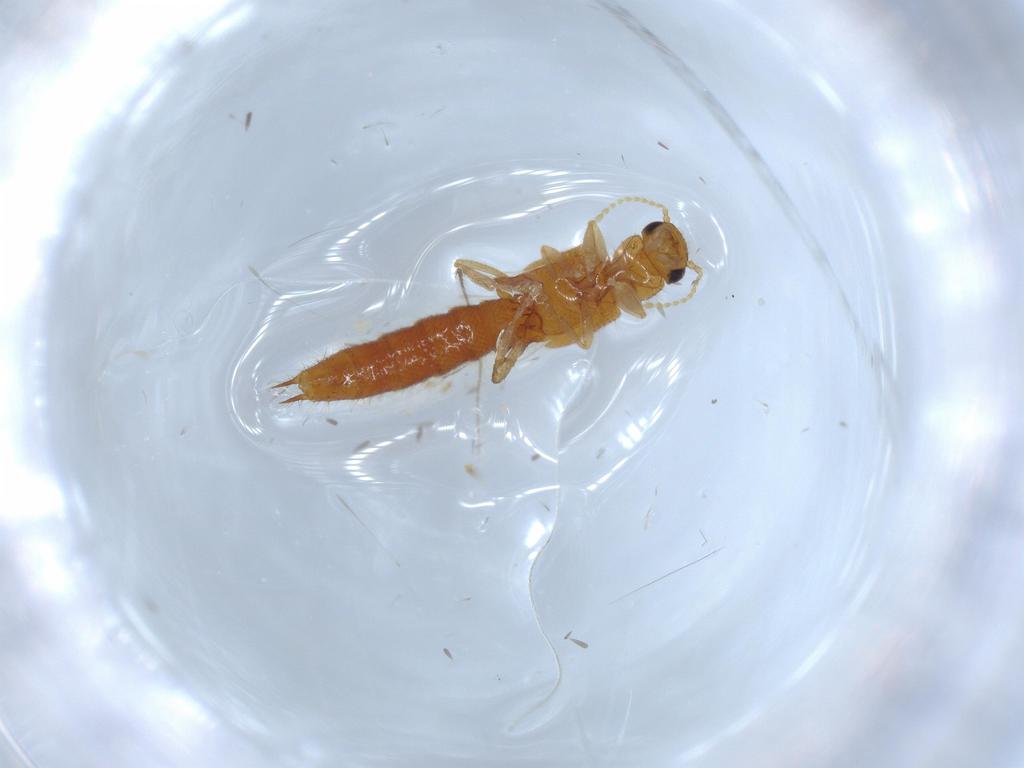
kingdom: Animalia
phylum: Arthropoda
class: Insecta
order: Coleoptera
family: Staphylinidae
